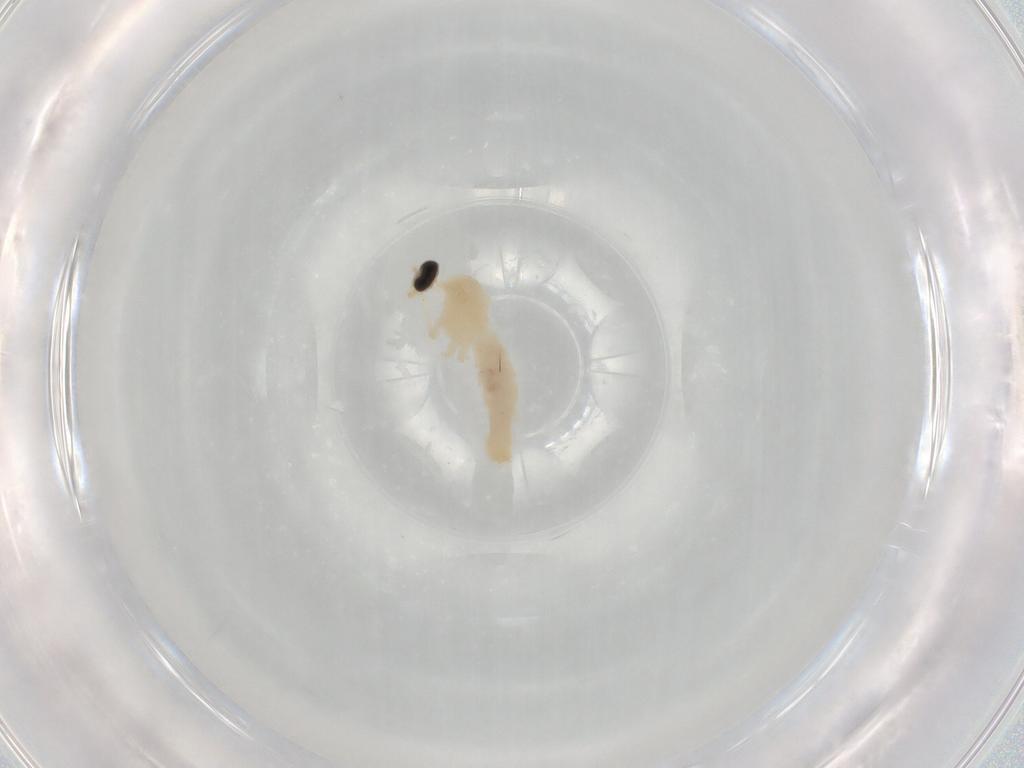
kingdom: Animalia
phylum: Arthropoda
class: Insecta
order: Diptera
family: Cecidomyiidae
